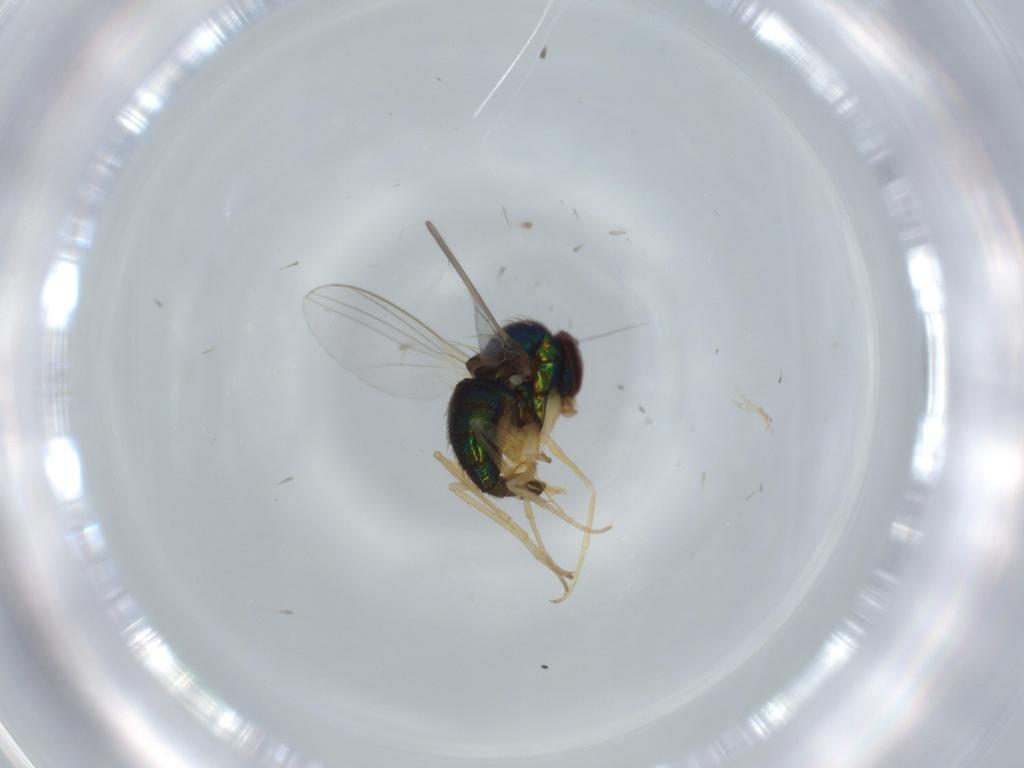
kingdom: Animalia
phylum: Arthropoda
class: Insecta
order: Diptera
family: Dolichopodidae
